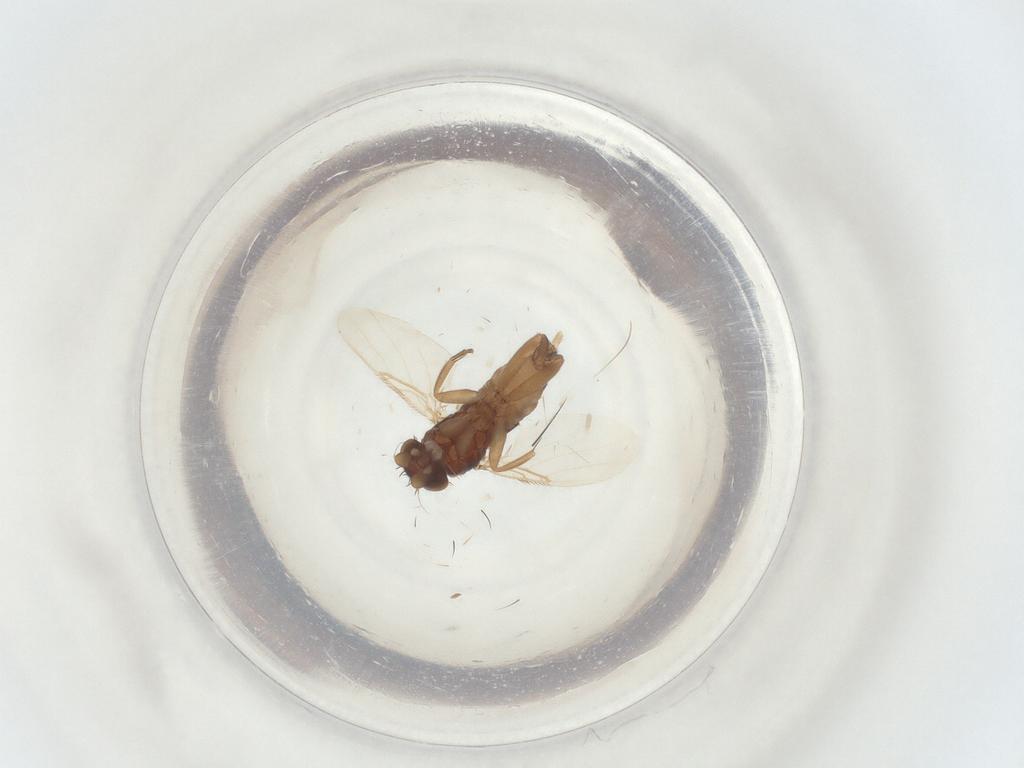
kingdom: Animalia
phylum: Arthropoda
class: Insecta
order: Diptera
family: Phoridae
